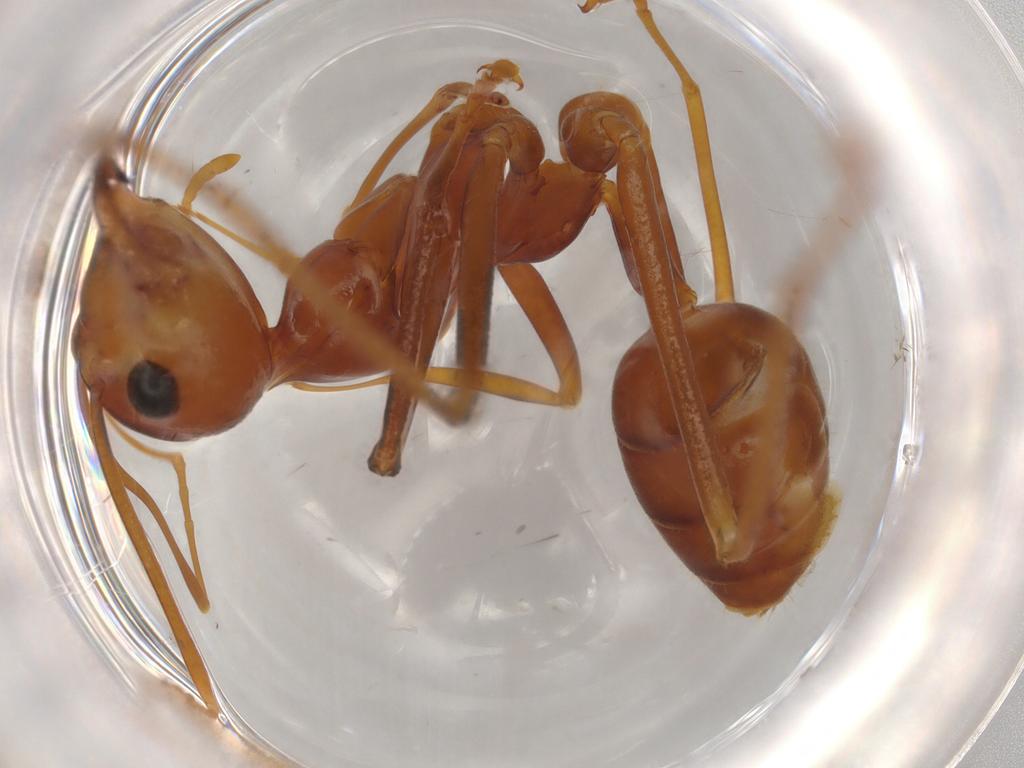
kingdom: Animalia
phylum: Arthropoda
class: Insecta
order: Hymenoptera
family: Formicidae
